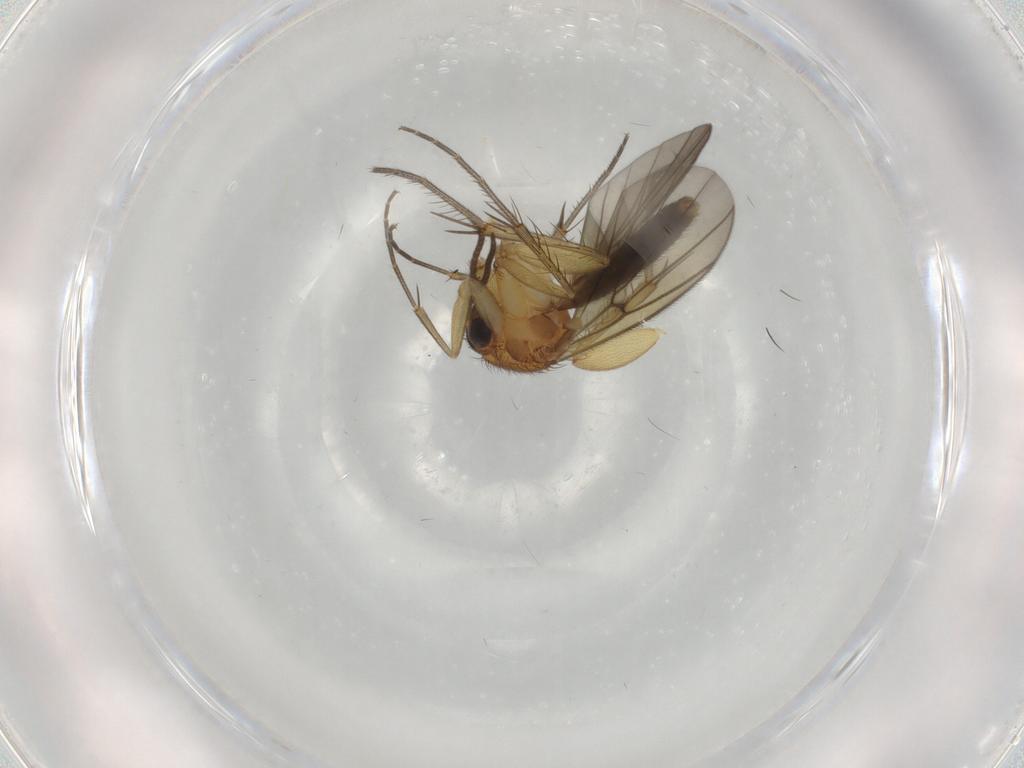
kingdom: Animalia
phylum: Arthropoda
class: Insecta
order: Diptera
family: Mycetophilidae
